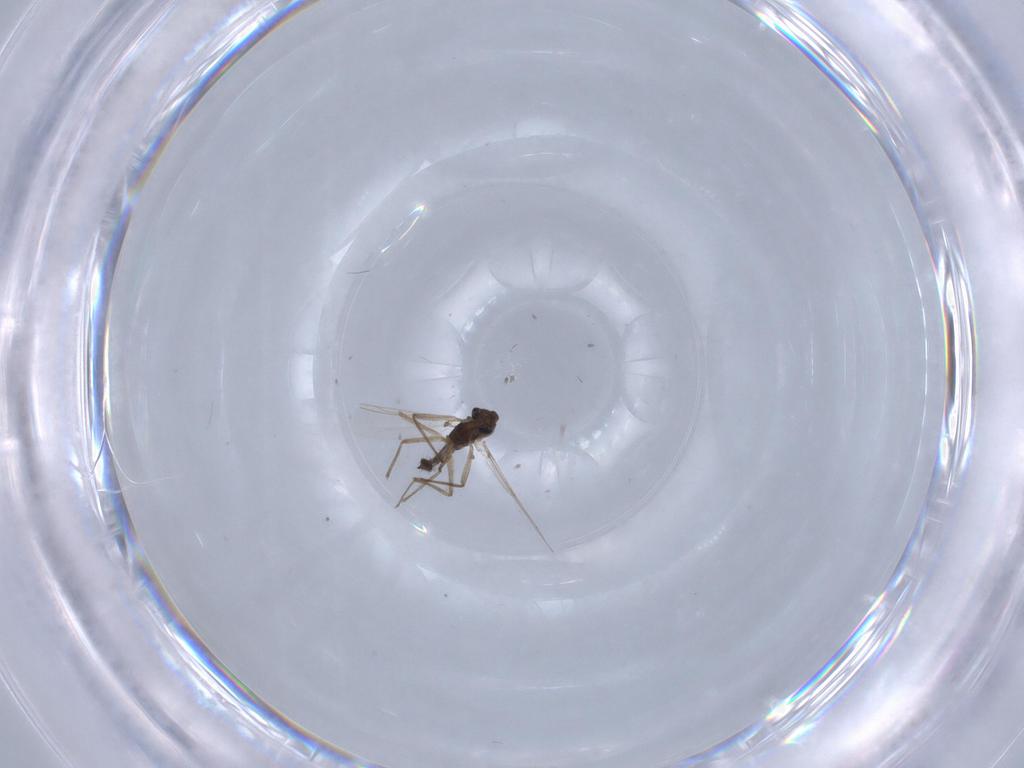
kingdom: Animalia
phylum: Arthropoda
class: Insecta
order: Diptera
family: Chironomidae
